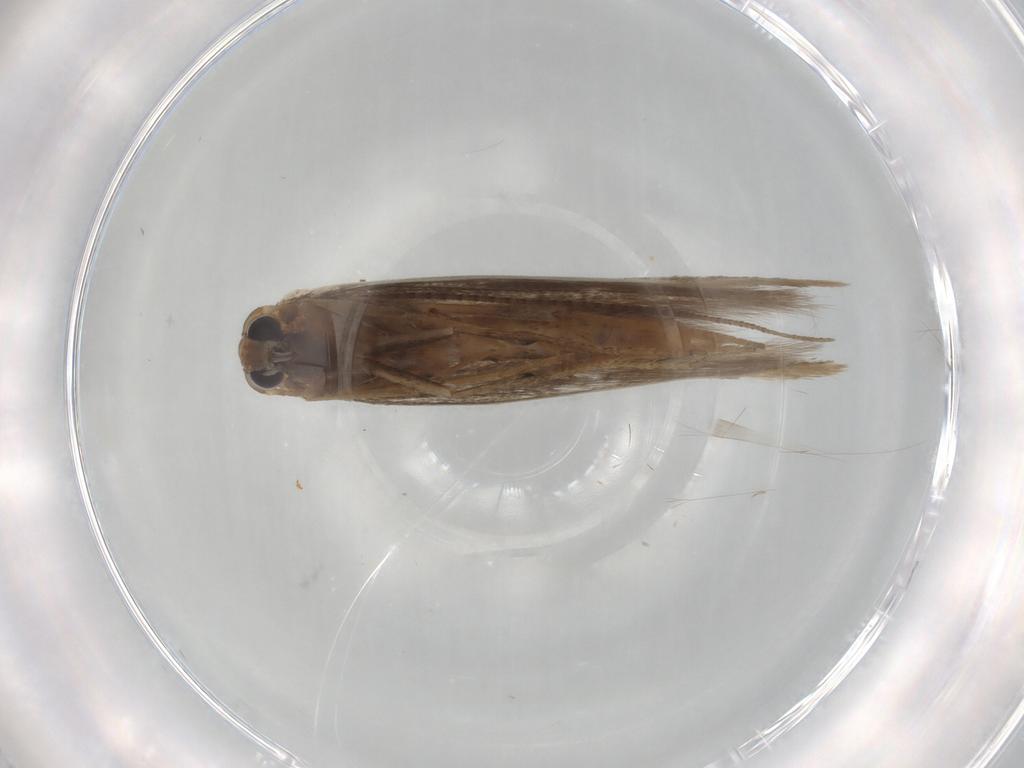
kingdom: Animalia
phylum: Arthropoda
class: Insecta
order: Lepidoptera
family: Bedelliidae
